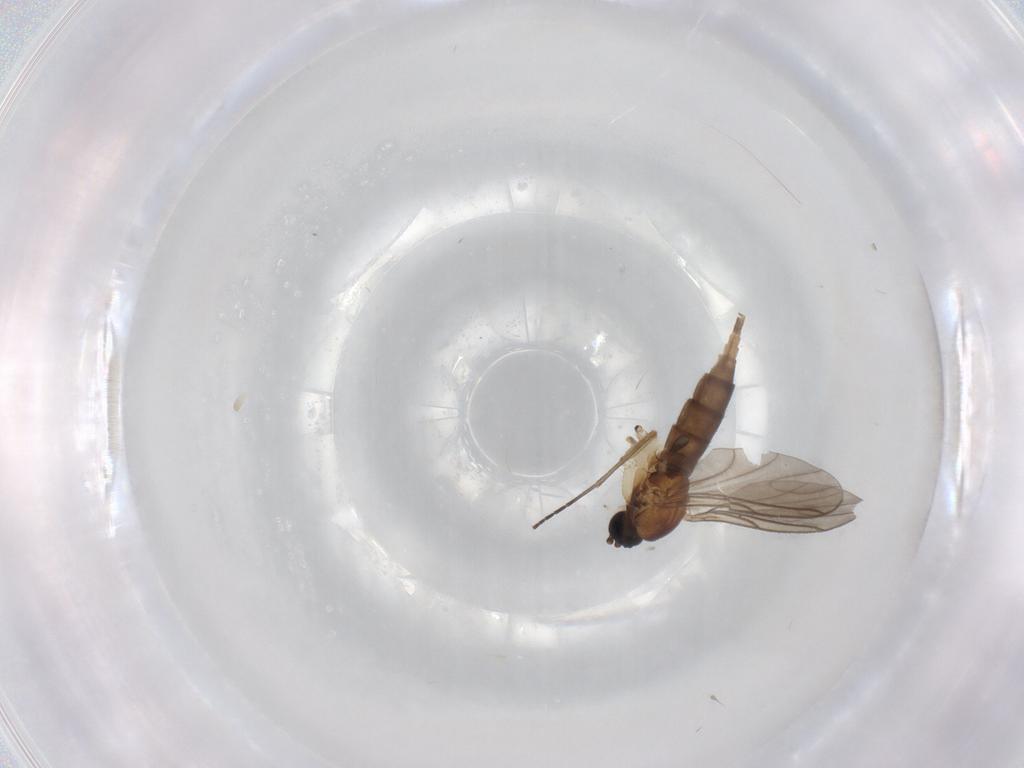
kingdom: Animalia
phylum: Arthropoda
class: Insecta
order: Diptera
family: Sciaridae
